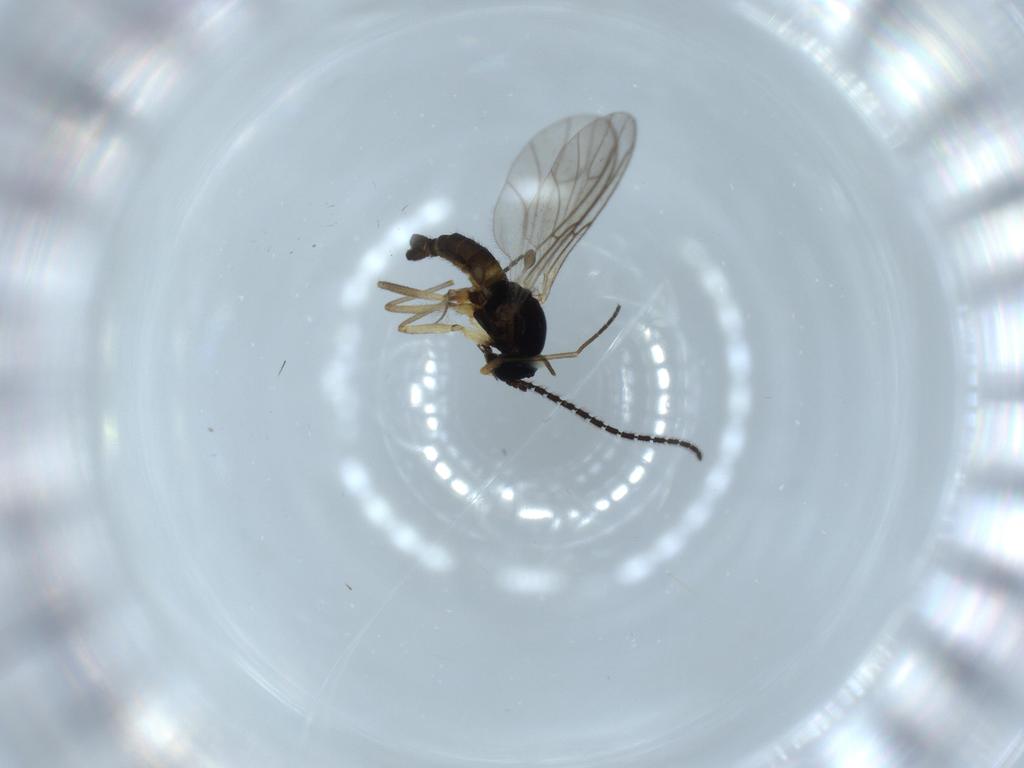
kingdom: Animalia
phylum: Arthropoda
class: Insecta
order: Diptera
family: Sciaridae
